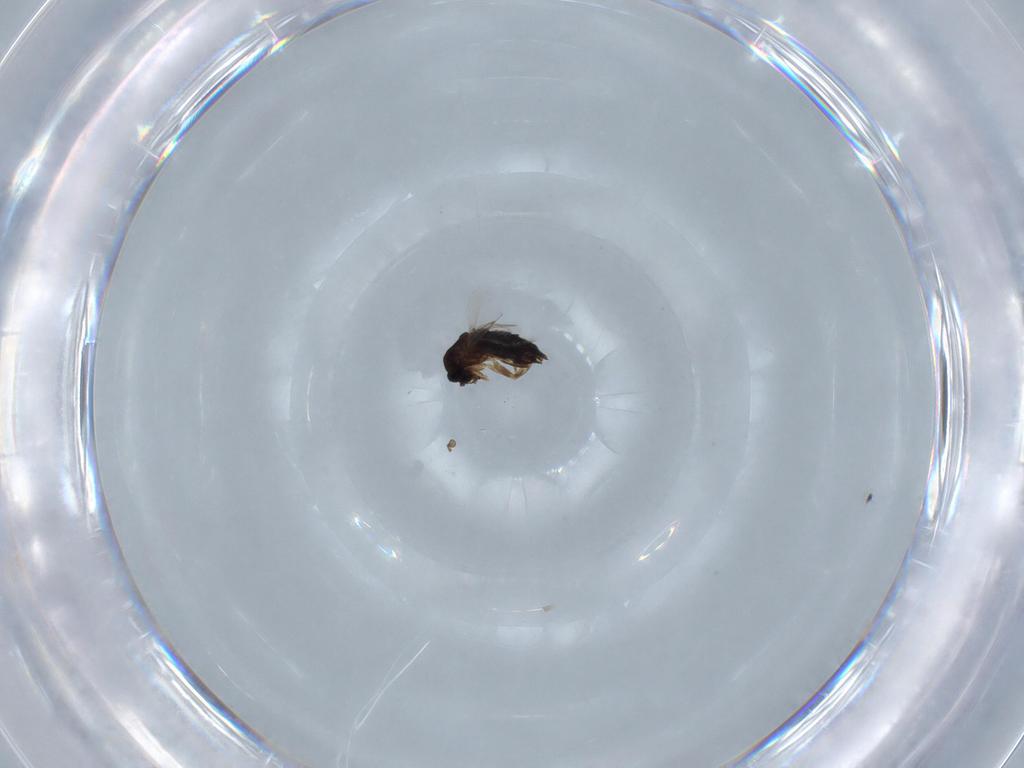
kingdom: Animalia
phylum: Arthropoda
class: Insecta
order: Diptera
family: Scatopsidae
